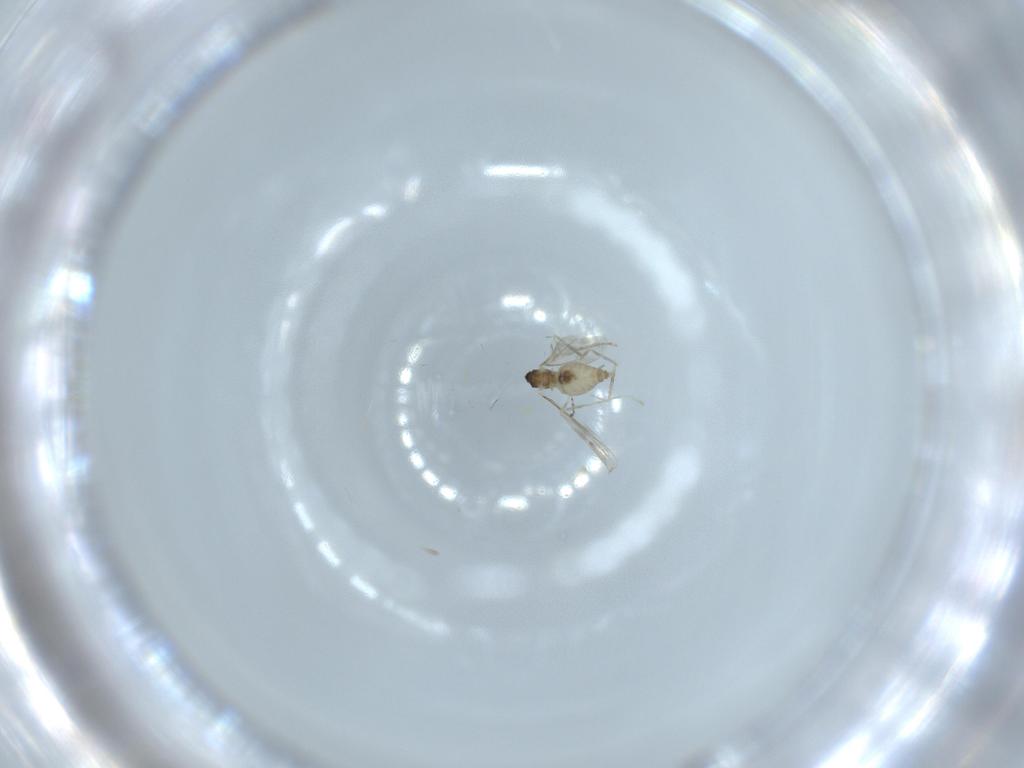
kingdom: Animalia
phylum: Arthropoda
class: Insecta
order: Diptera
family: Cecidomyiidae
